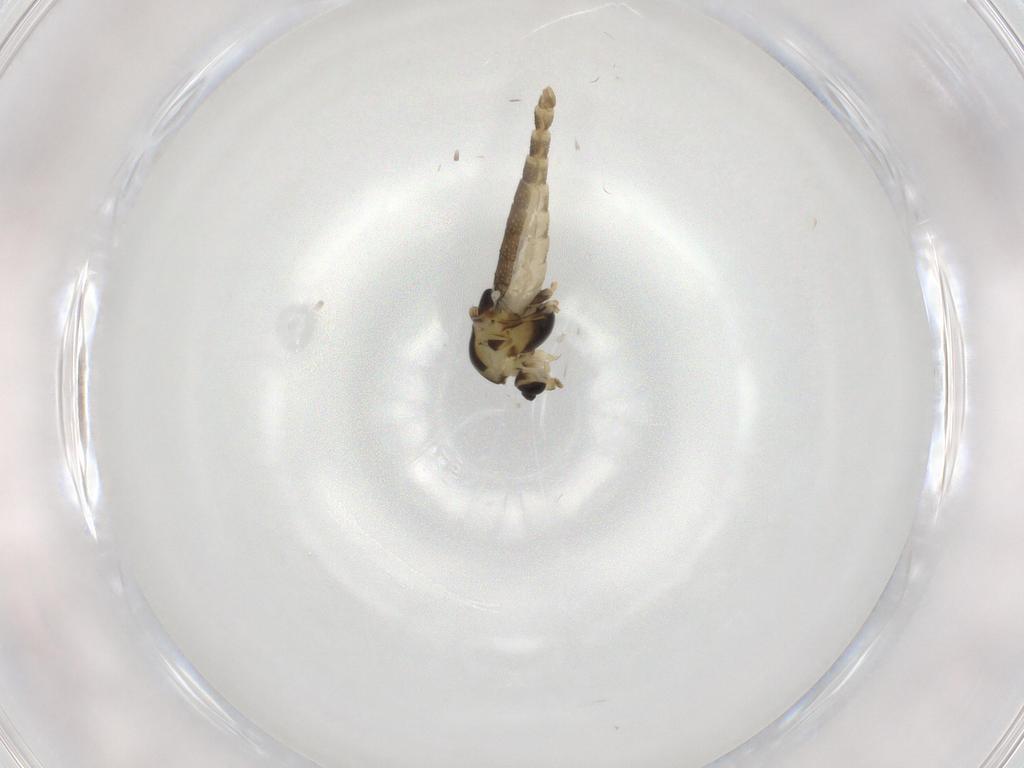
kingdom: Animalia
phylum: Arthropoda
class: Insecta
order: Diptera
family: Chironomidae
